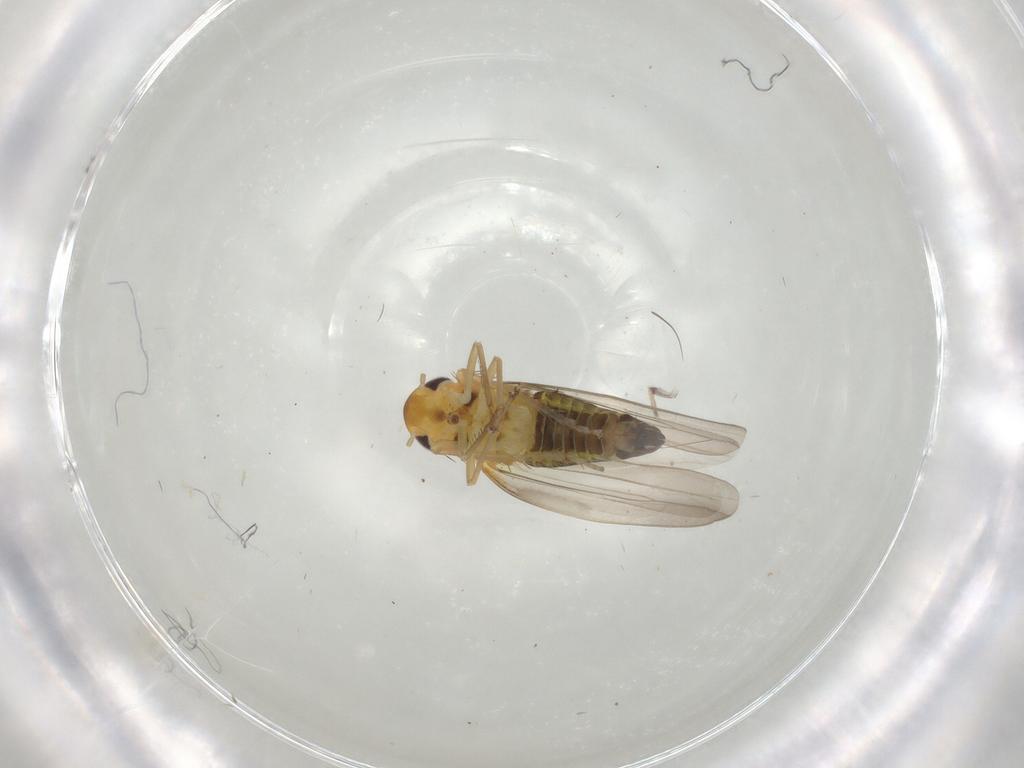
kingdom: Animalia
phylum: Arthropoda
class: Insecta
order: Hemiptera
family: Cicadellidae
